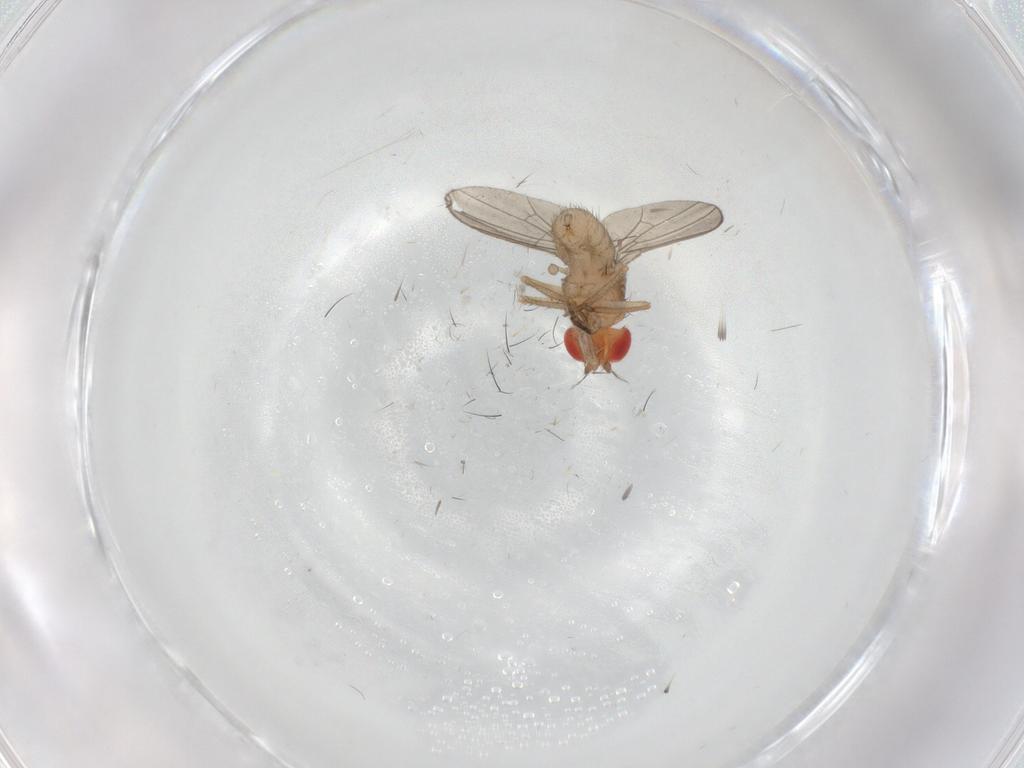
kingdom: Animalia
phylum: Arthropoda
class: Insecta
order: Diptera
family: Drosophilidae
